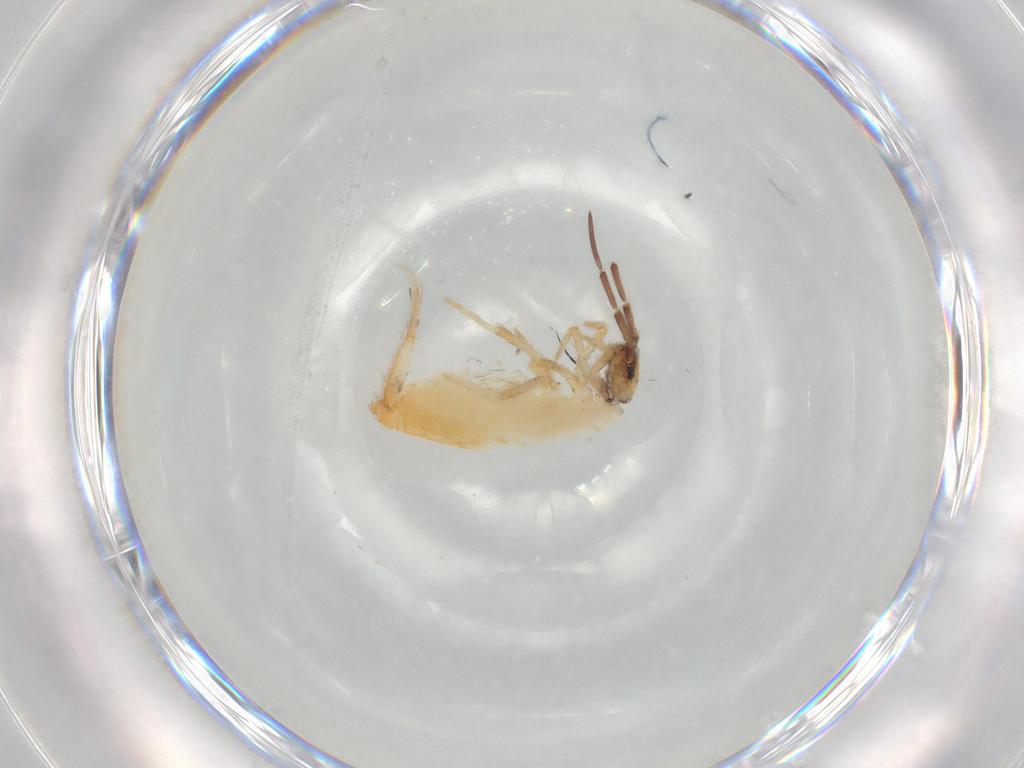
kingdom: Animalia
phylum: Arthropoda
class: Collembola
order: Entomobryomorpha
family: Entomobryidae
